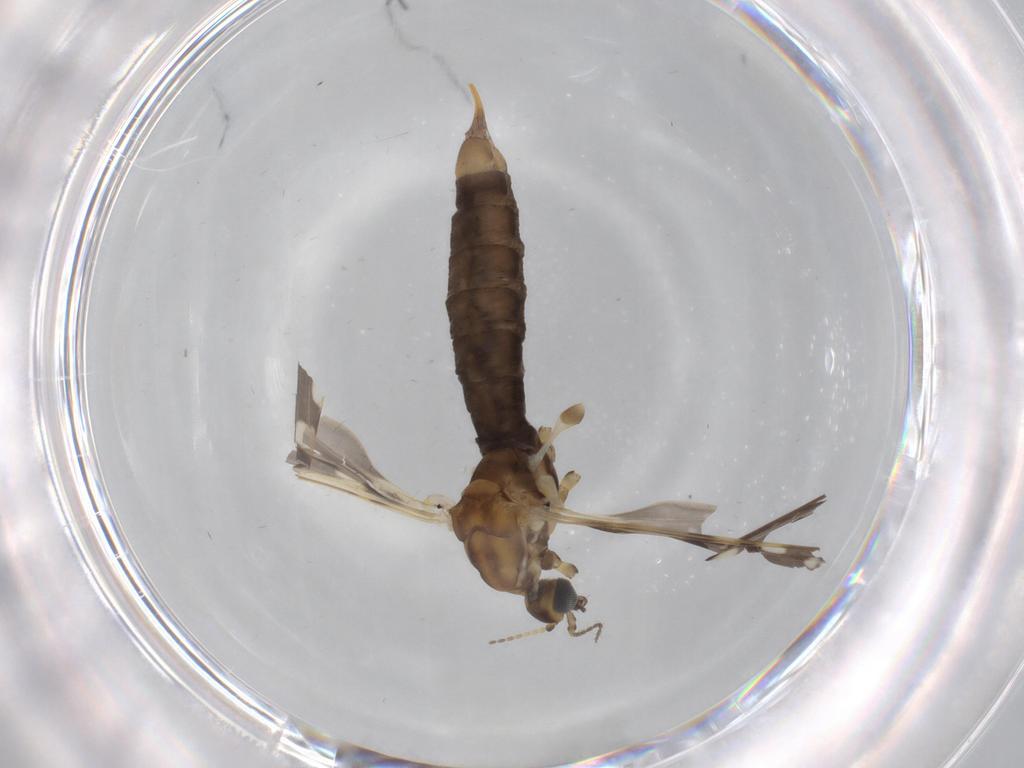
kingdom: Animalia
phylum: Arthropoda
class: Insecta
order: Diptera
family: Limoniidae
